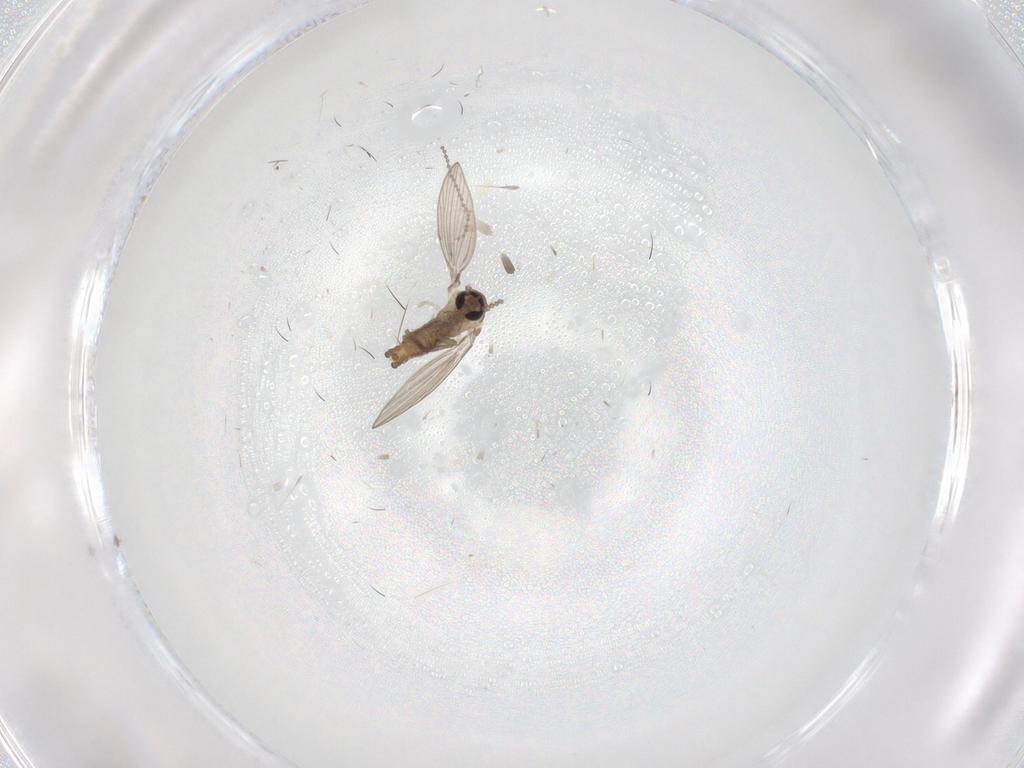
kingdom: Animalia
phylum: Arthropoda
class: Insecta
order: Diptera
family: Psychodidae
